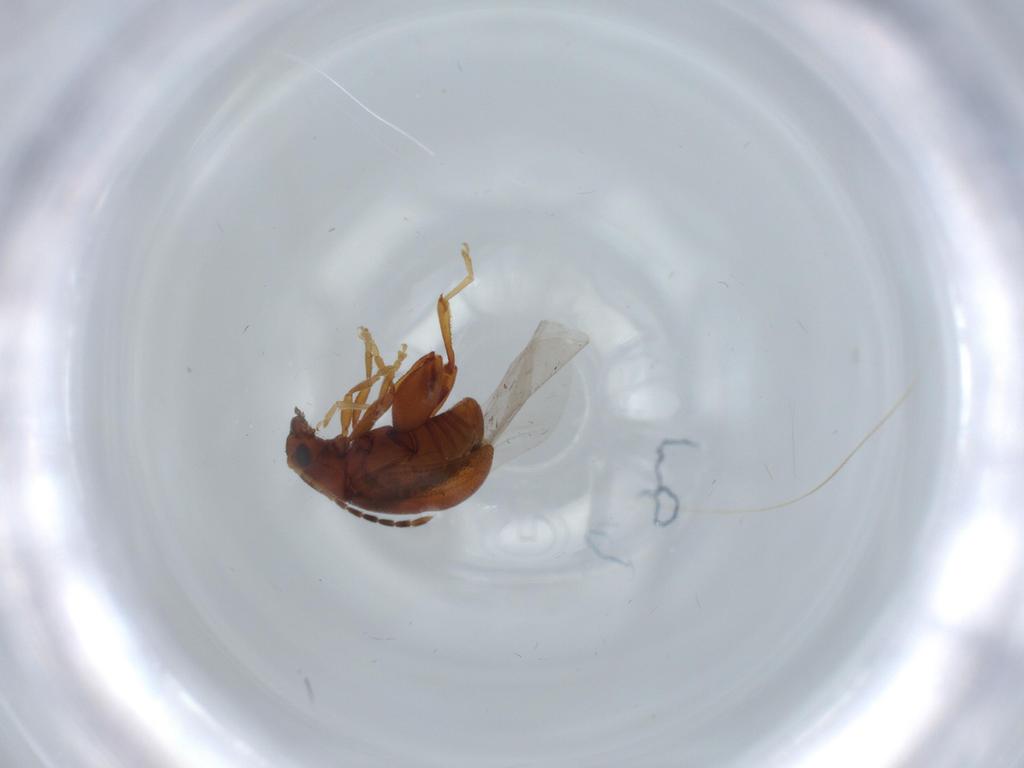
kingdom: Animalia
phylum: Arthropoda
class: Insecta
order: Coleoptera
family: Chrysomelidae
